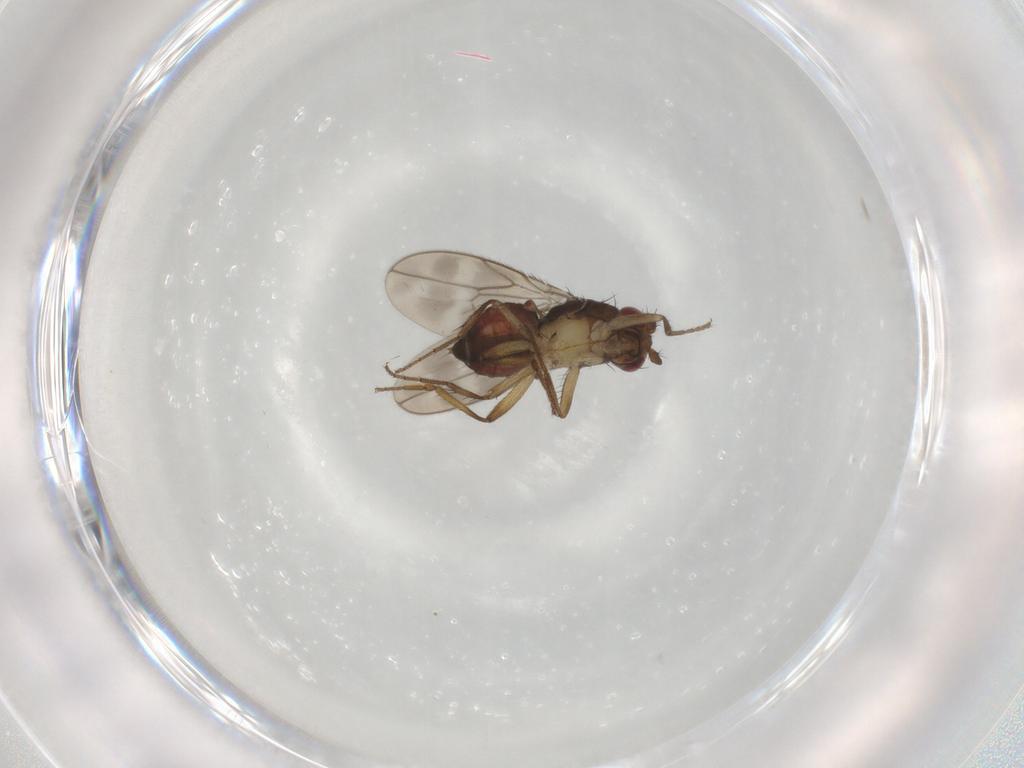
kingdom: Animalia
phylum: Arthropoda
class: Insecta
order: Diptera
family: Sphaeroceridae
